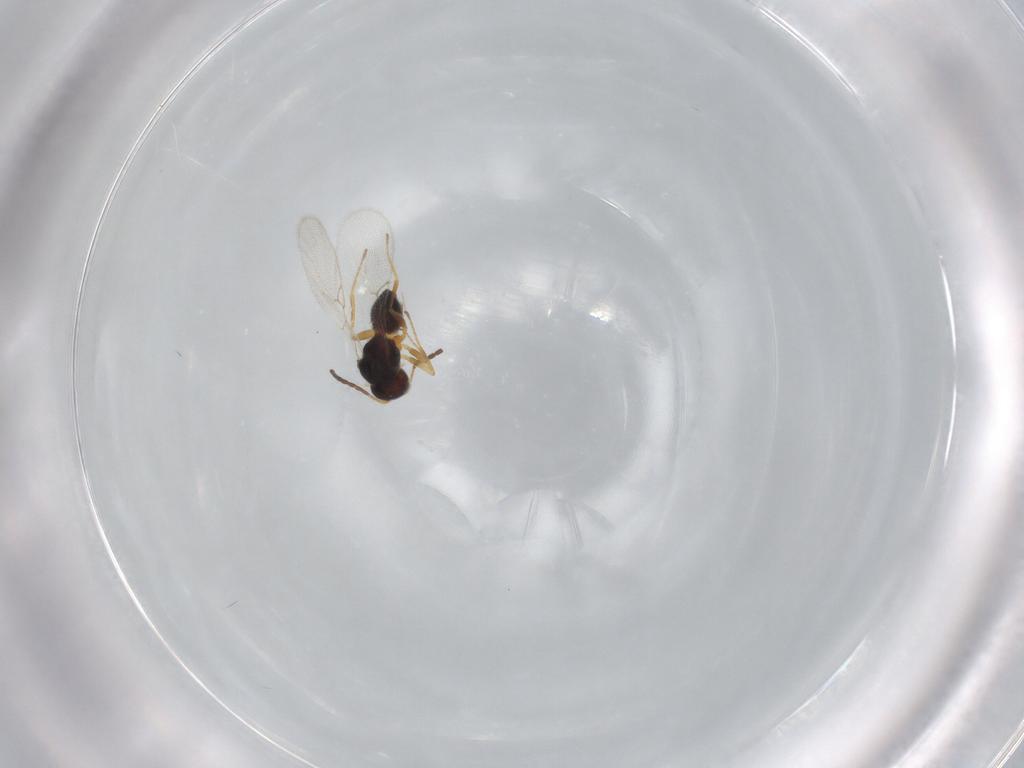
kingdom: Animalia
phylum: Arthropoda
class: Insecta
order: Hymenoptera
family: Figitidae
